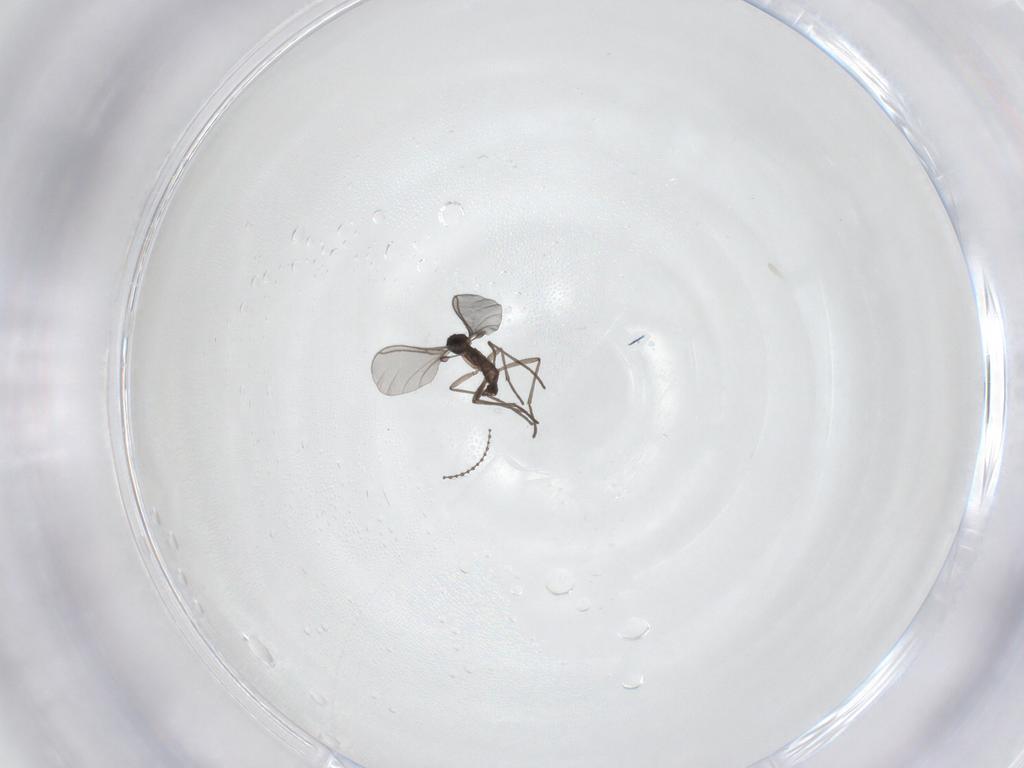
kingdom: Animalia
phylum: Arthropoda
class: Insecta
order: Diptera
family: Sciaridae
